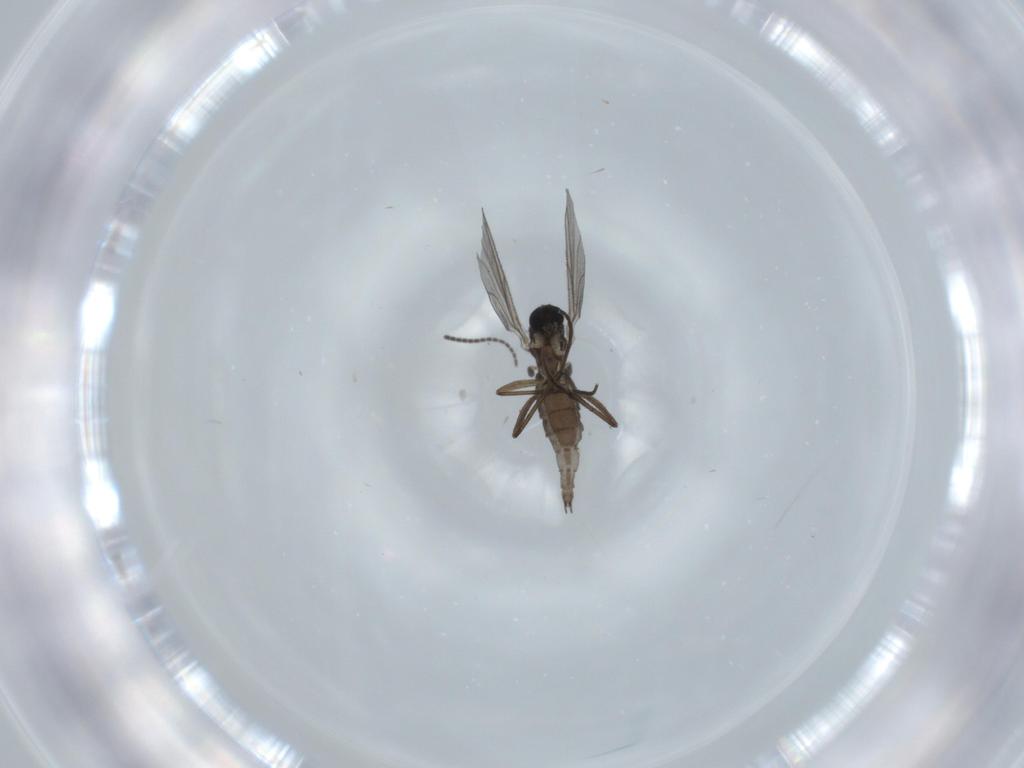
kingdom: Animalia
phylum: Arthropoda
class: Insecta
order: Diptera
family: Sciaridae
